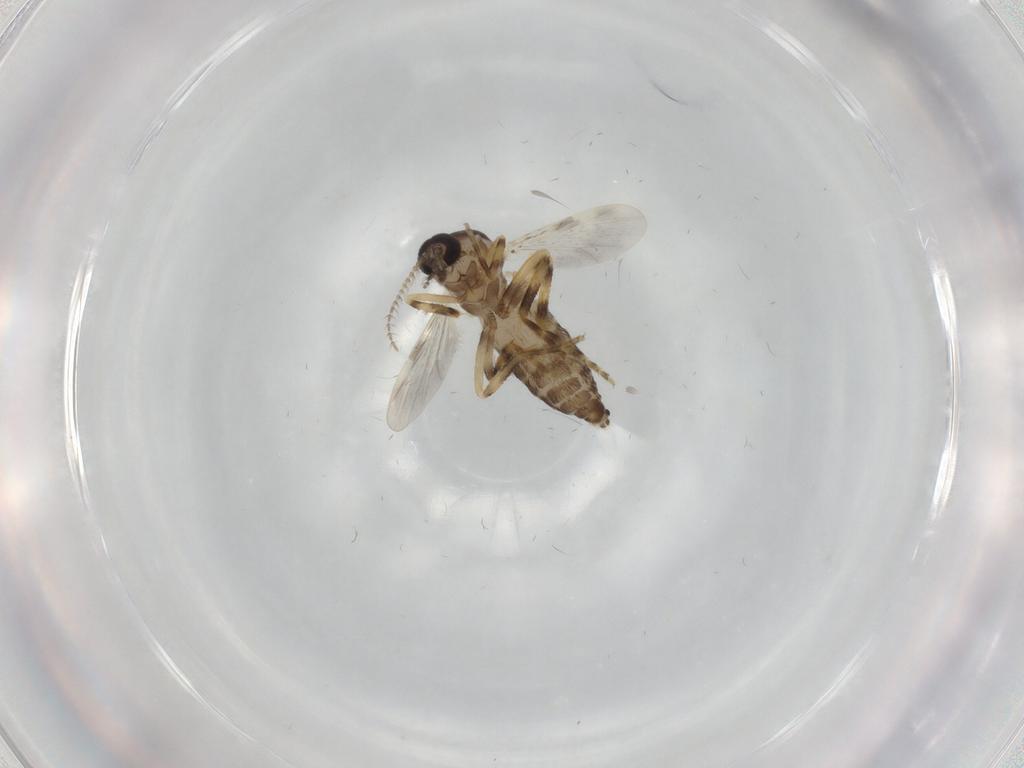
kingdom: Animalia
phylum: Arthropoda
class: Insecta
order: Diptera
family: Ceratopogonidae
